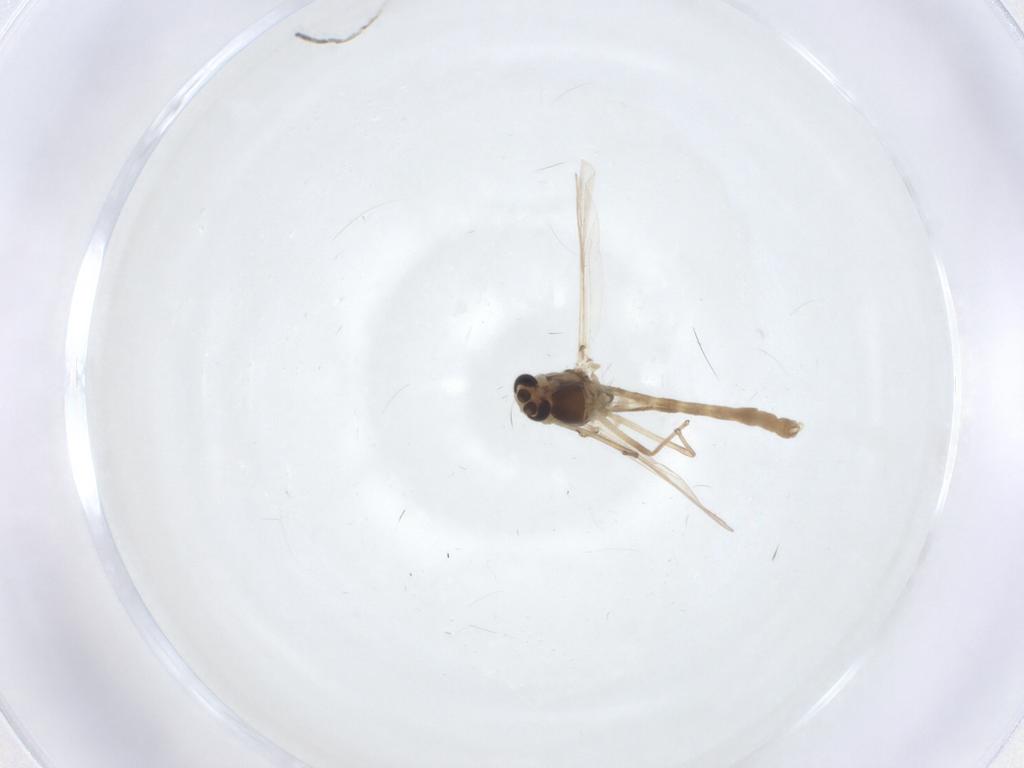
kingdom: Animalia
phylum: Arthropoda
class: Insecta
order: Diptera
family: Chironomidae
